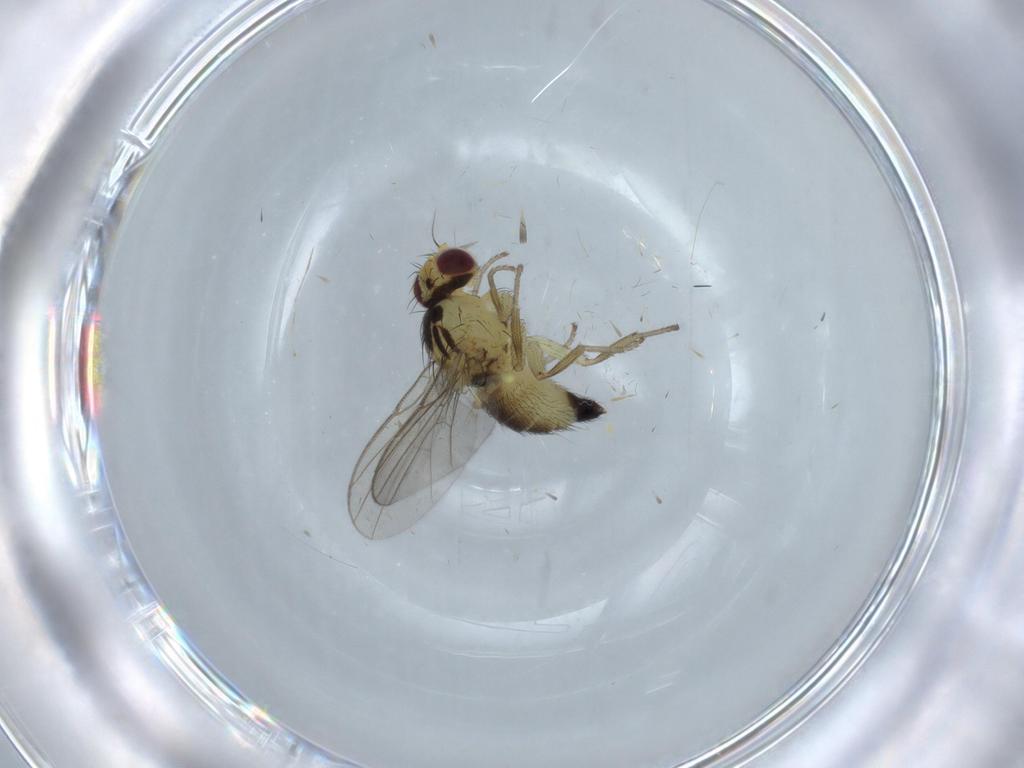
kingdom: Animalia
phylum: Arthropoda
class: Insecta
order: Diptera
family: Agromyzidae
